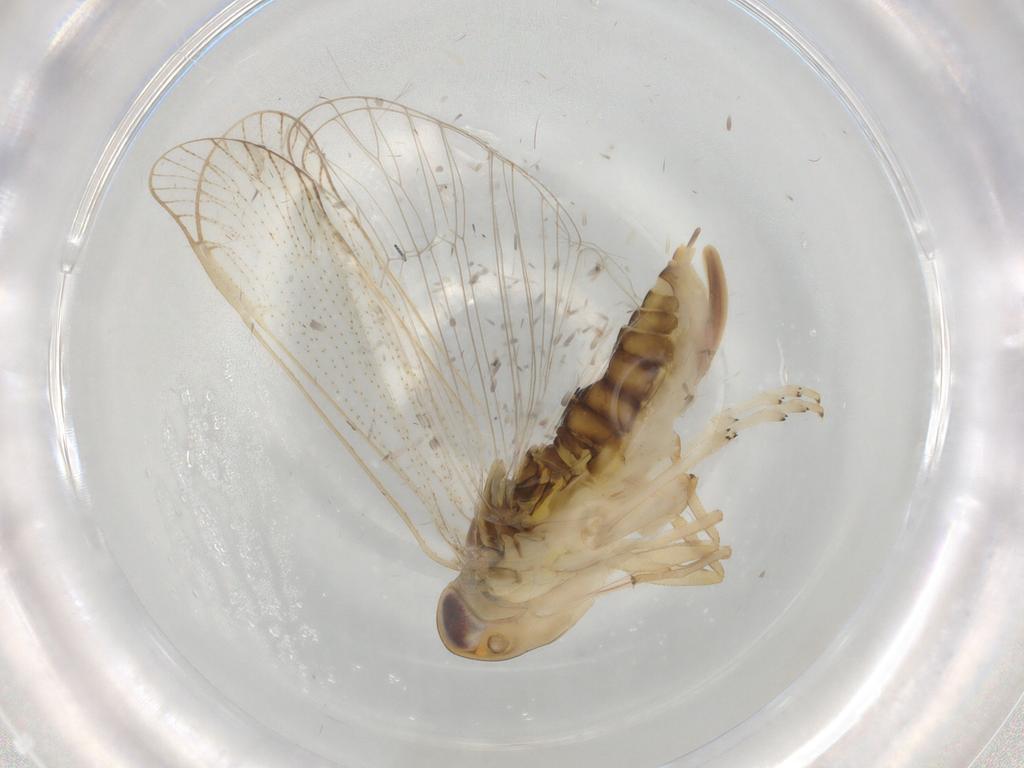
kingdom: Animalia
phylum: Arthropoda
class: Insecta
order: Hemiptera
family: Cixiidae
